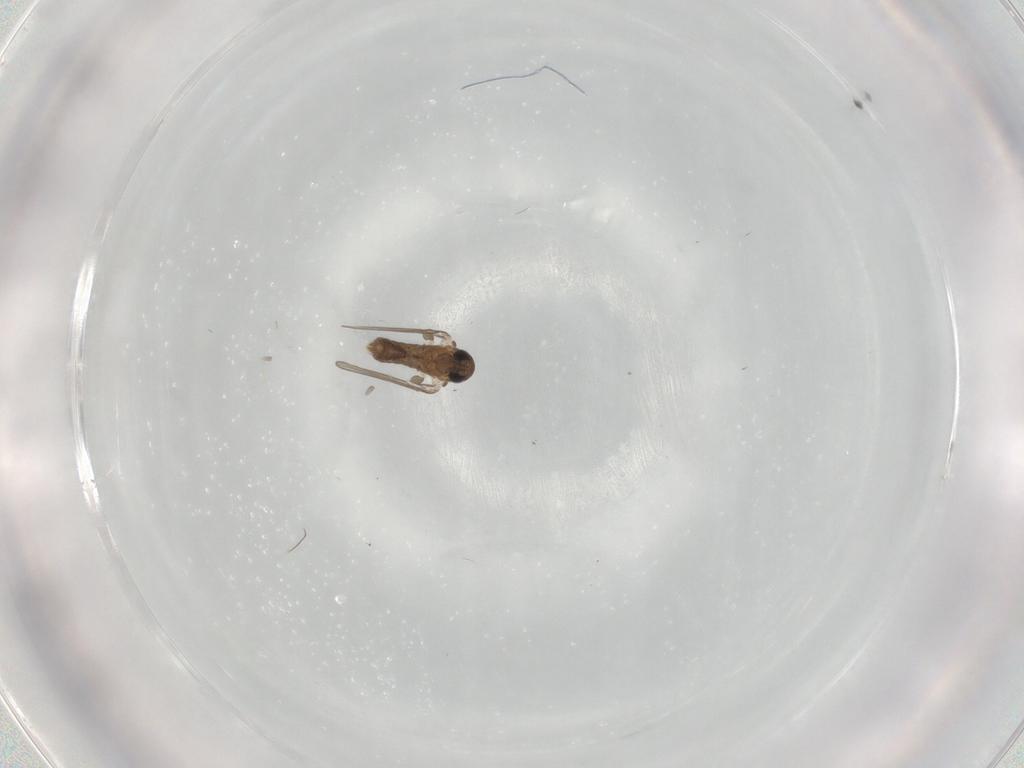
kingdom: Animalia
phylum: Arthropoda
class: Insecta
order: Diptera
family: Psychodidae
